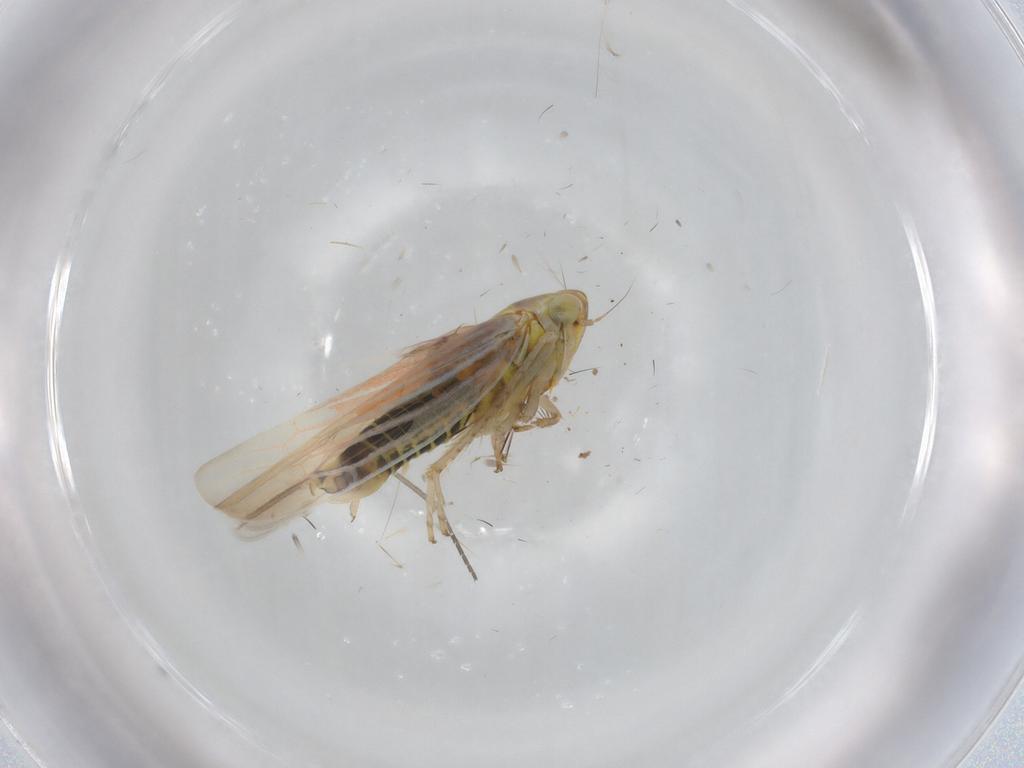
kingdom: Animalia
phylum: Arthropoda
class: Insecta
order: Hemiptera
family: Cicadellidae
